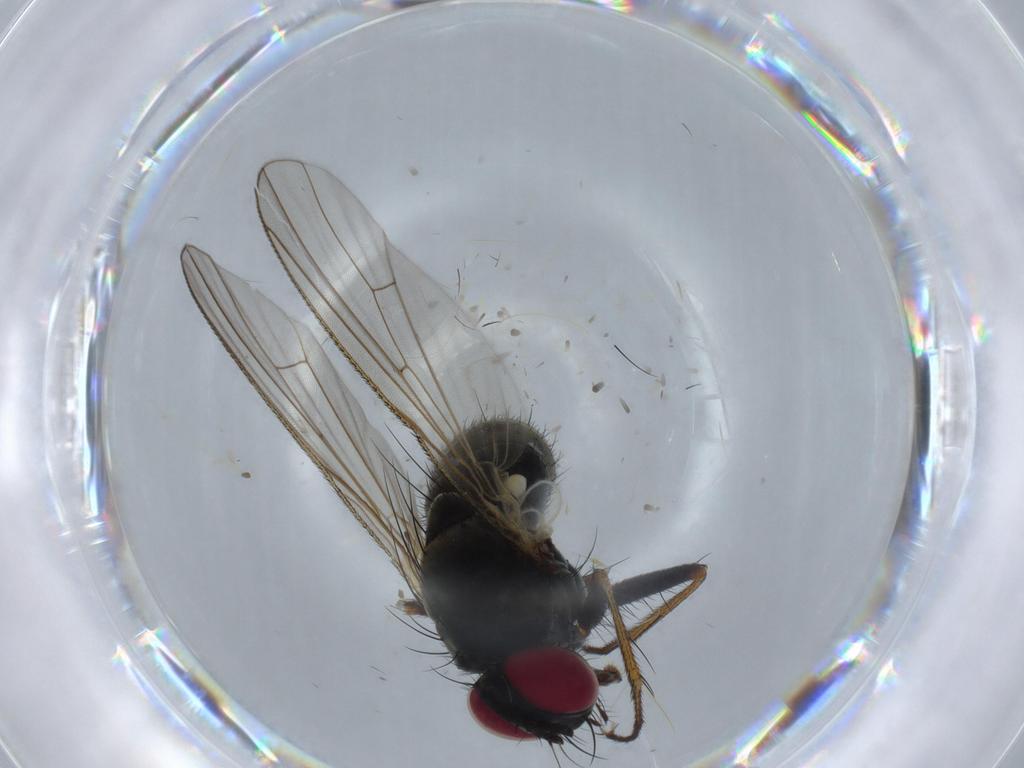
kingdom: Animalia
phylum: Arthropoda
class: Insecta
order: Diptera
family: Muscidae
